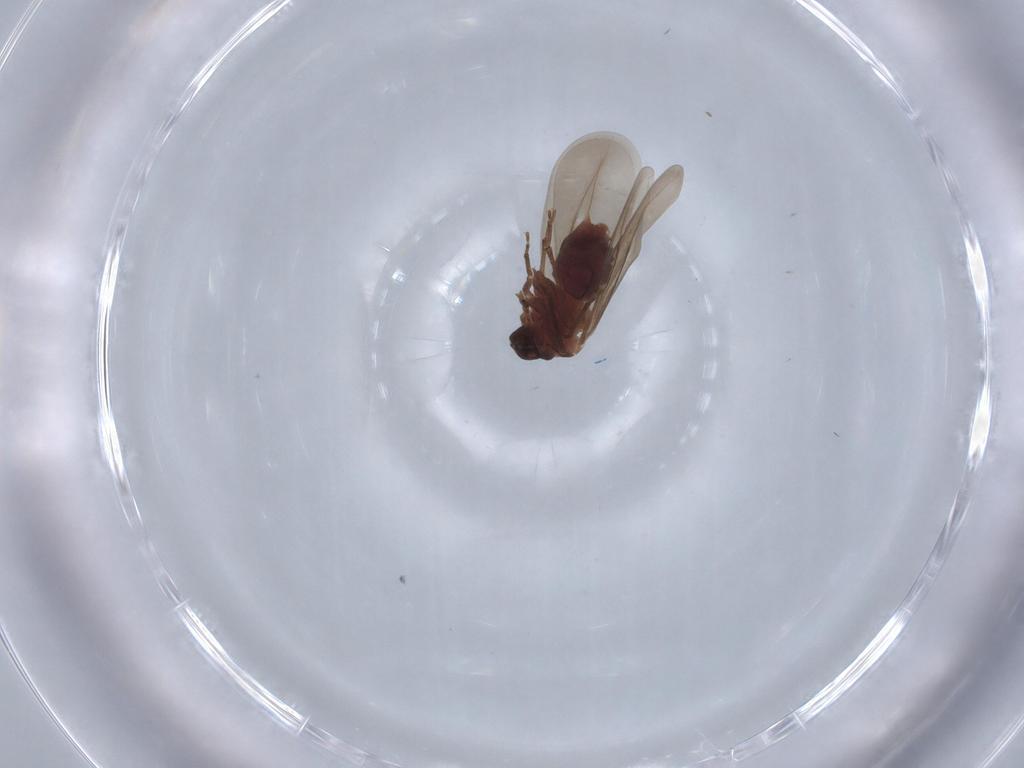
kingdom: Animalia
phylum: Arthropoda
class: Insecta
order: Hemiptera
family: Aleyrodidae
